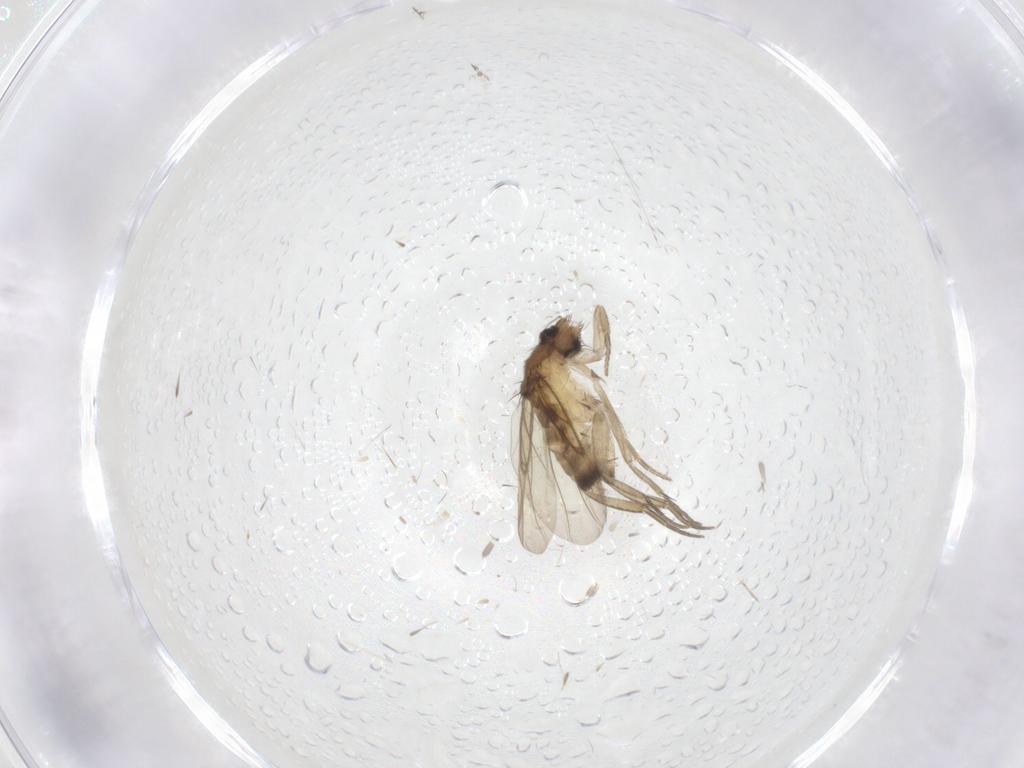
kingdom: Animalia
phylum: Arthropoda
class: Insecta
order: Diptera
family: Phoridae
